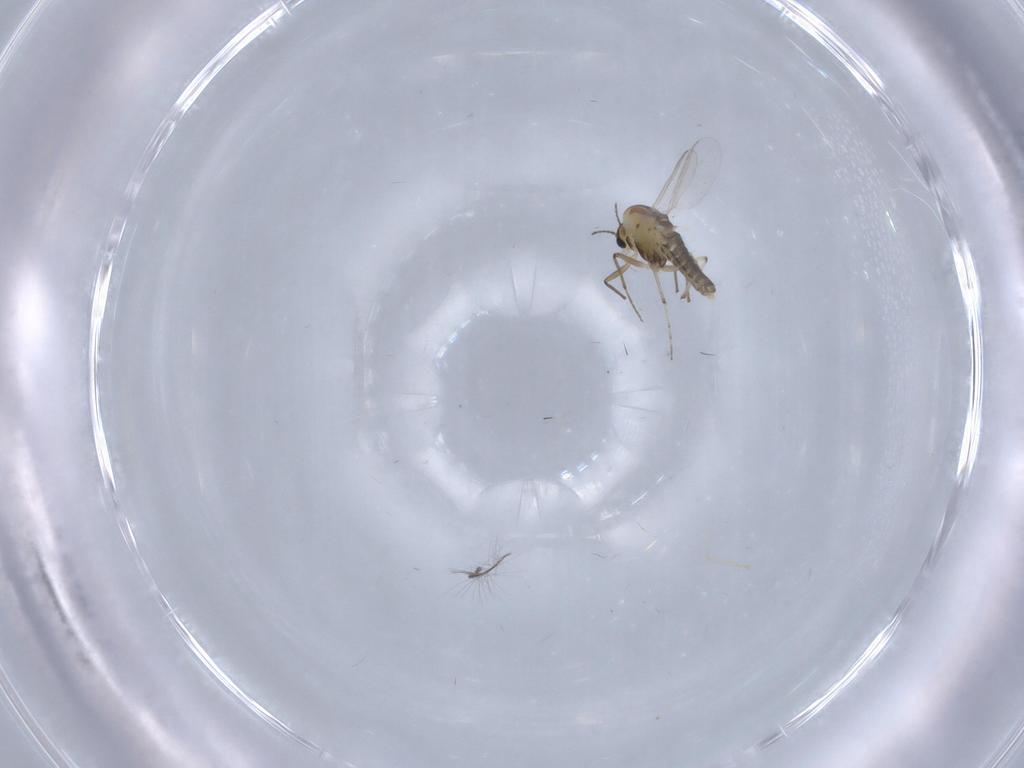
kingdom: Animalia
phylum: Arthropoda
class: Insecta
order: Diptera
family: Chironomidae
